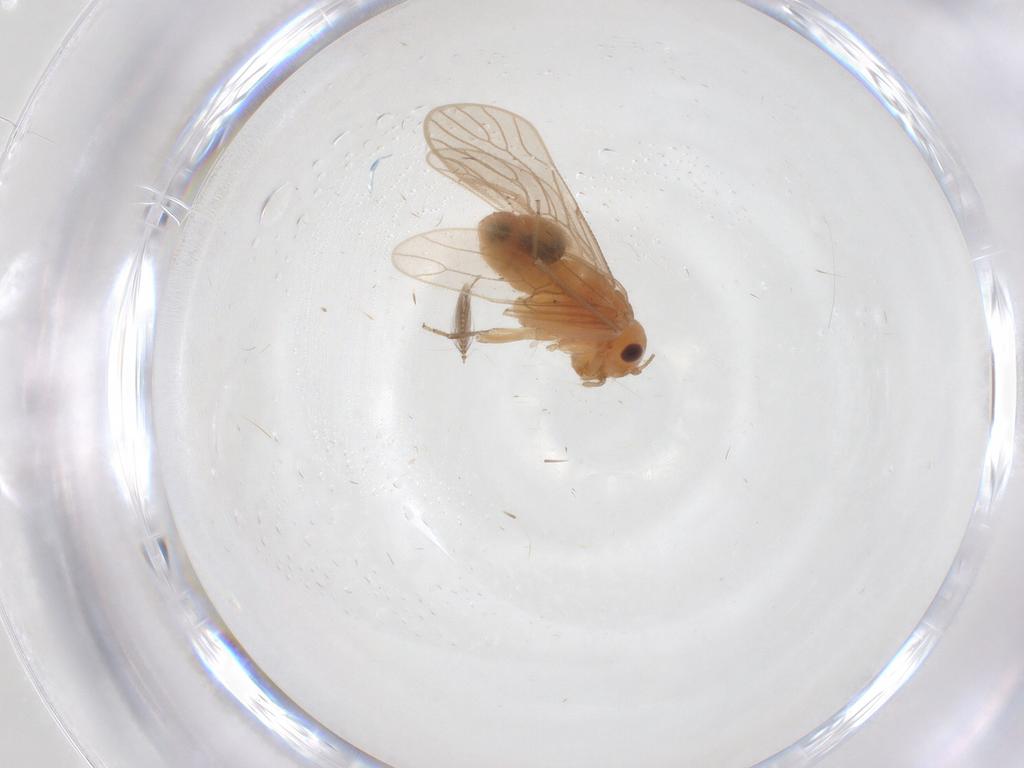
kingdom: Animalia
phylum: Arthropoda
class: Insecta
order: Psocodea
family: Epipsocidae
